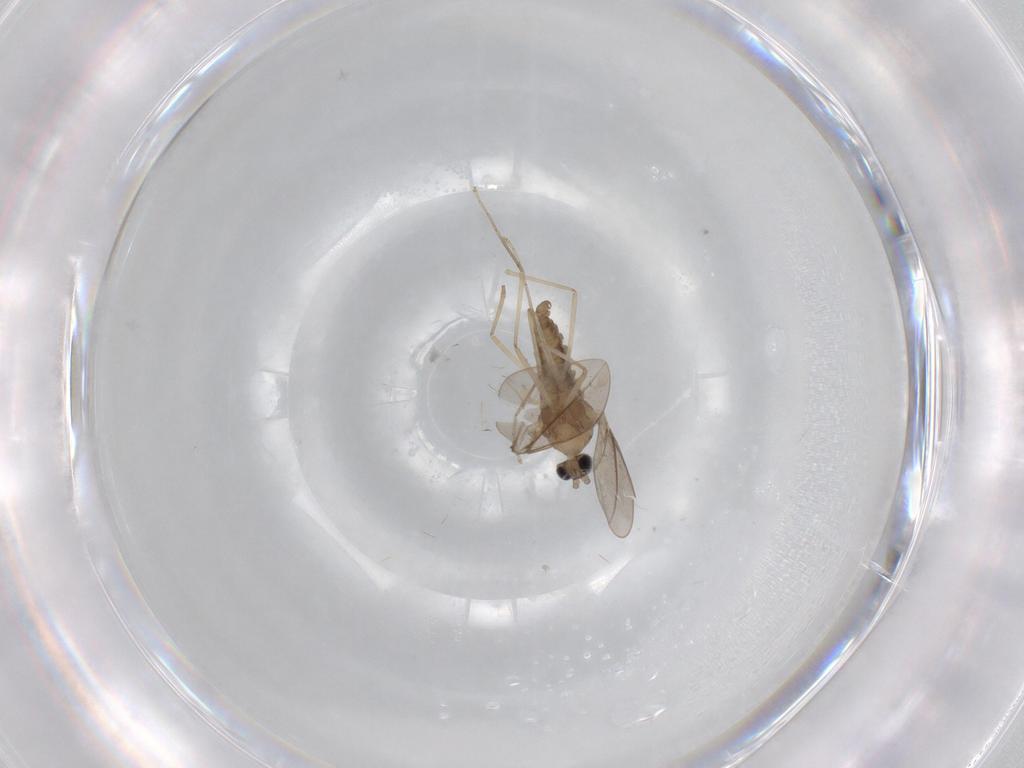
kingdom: Animalia
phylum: Arthropoda
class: Insecta
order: Diptera
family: Cecidomyiidae
